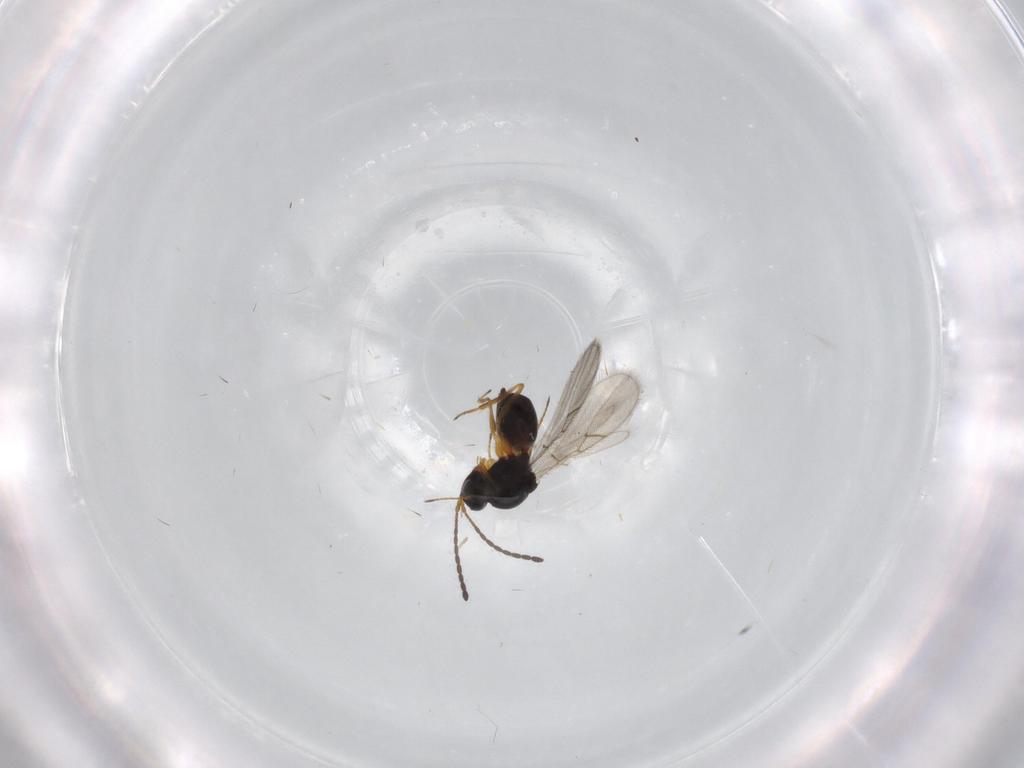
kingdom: Animalia
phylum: Arthropoda
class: Insecta
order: Hymenoptera
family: Figitidae
